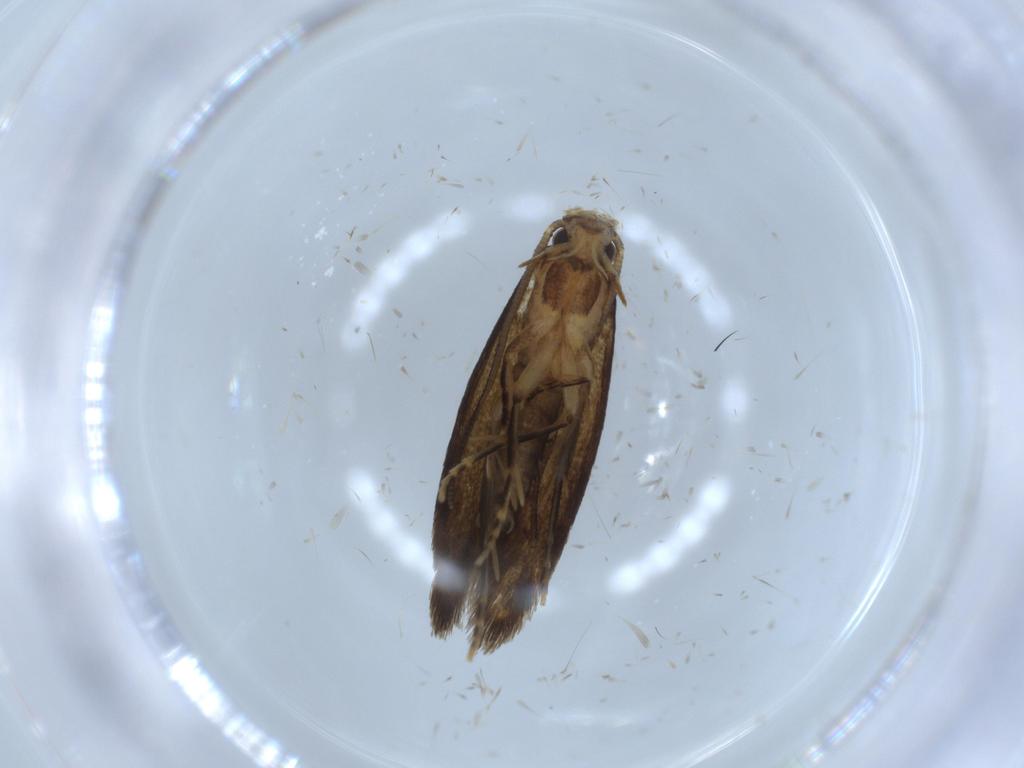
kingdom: Animalia
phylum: Arthropoda
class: Insecta
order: Lepidoptera
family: Tineidae
